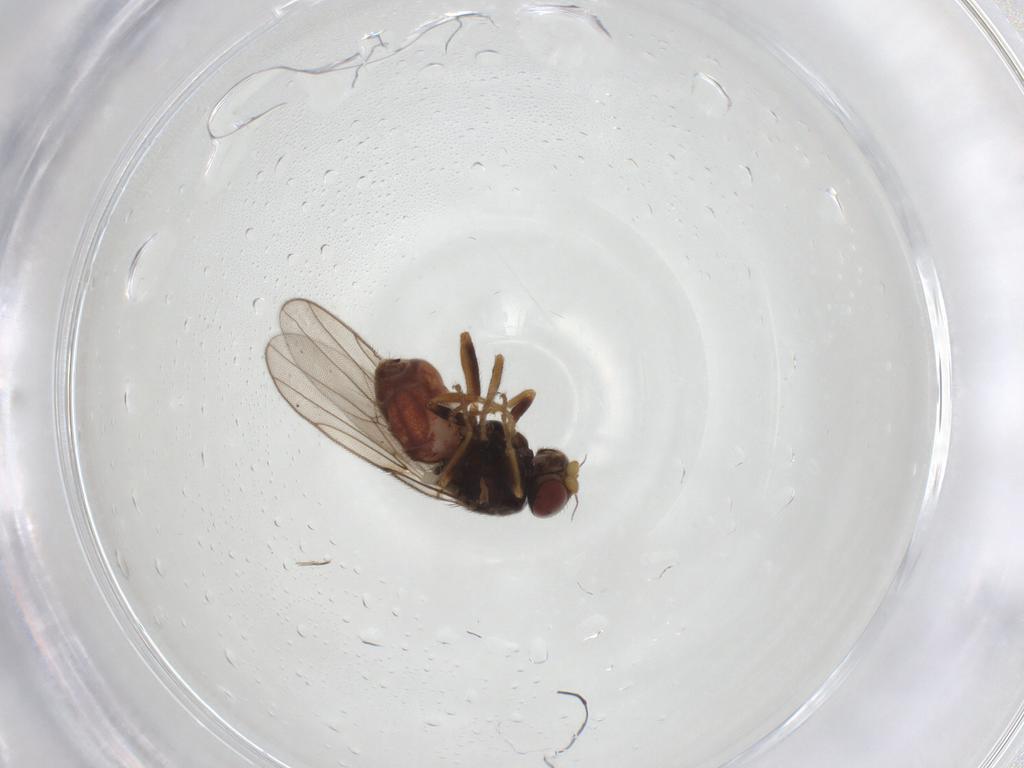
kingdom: Animalia
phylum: Arthropoda
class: Insecta
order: Diptera
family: Chloropidae
